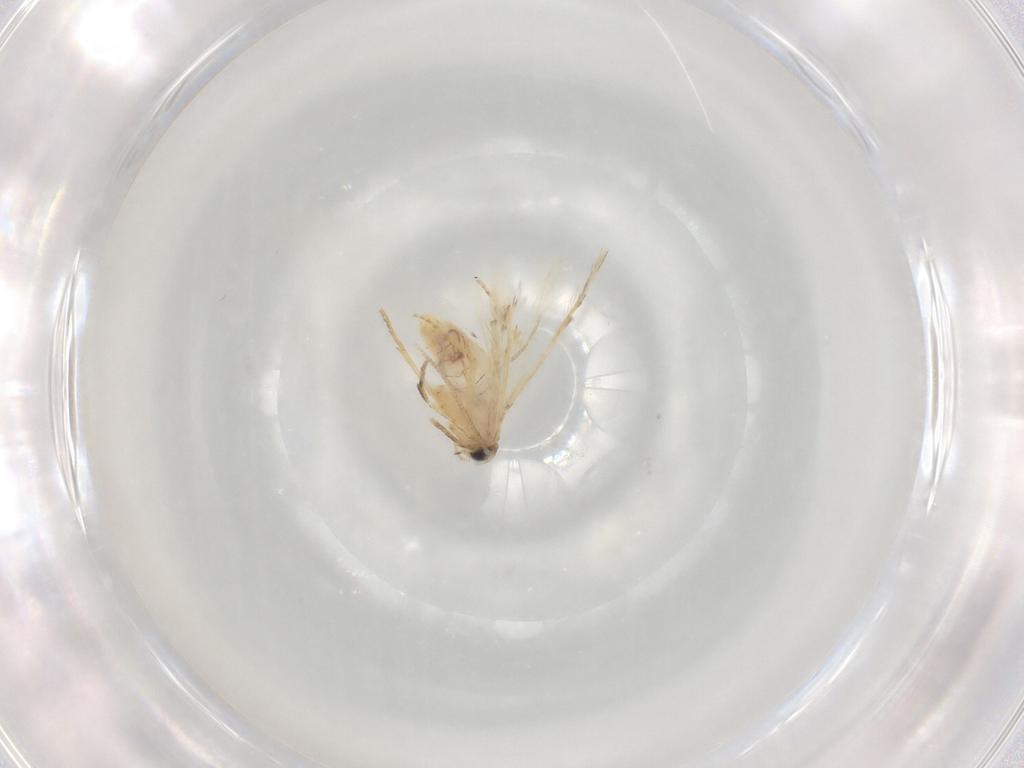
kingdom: Animalia
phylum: Arthropoda
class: Insecta
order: Lepidoptera
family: Nepticulidae
